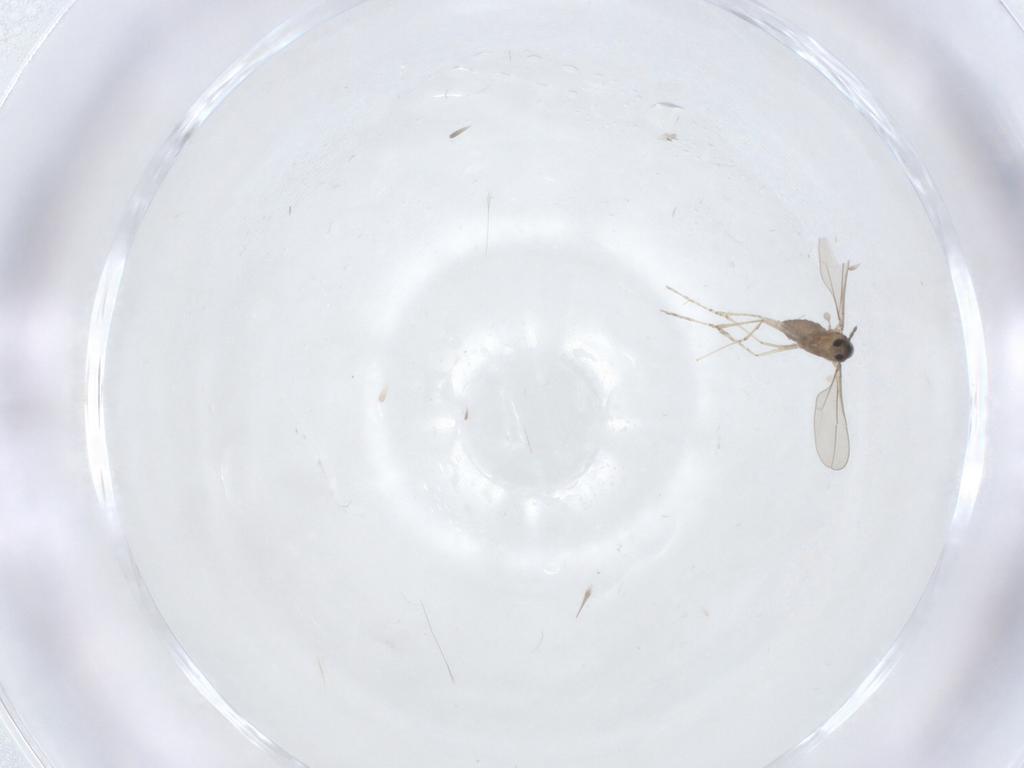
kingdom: Animalia
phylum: Arthropoda
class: Insecta
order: Diptera
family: Cecidomyiidae
